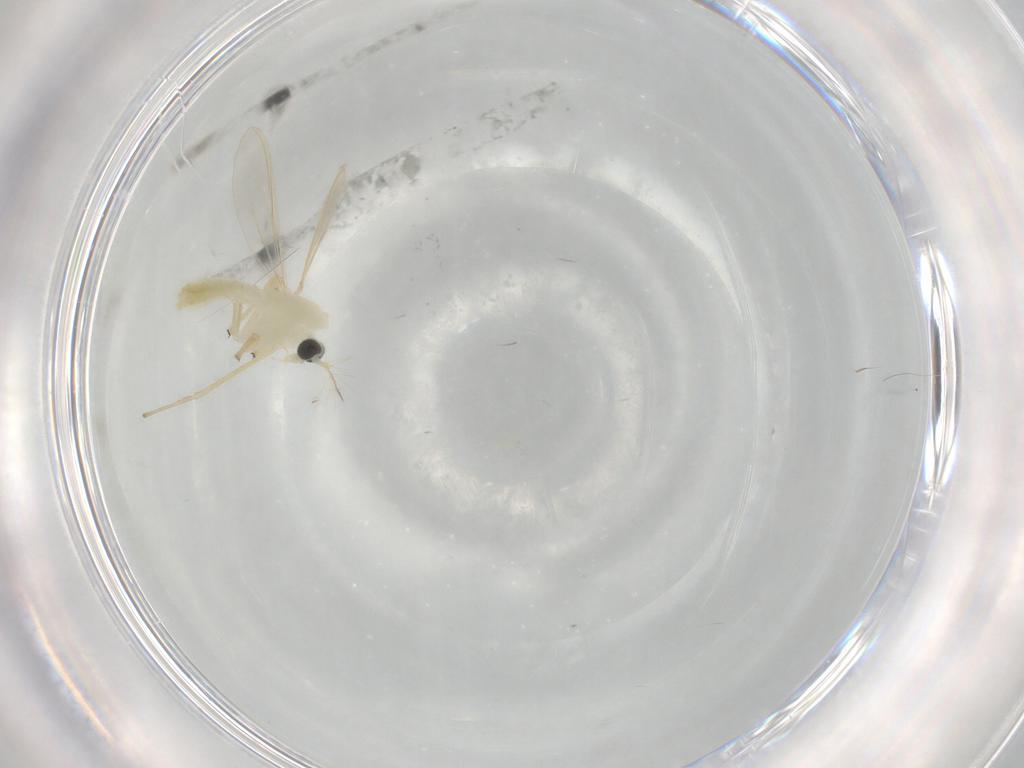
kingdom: Animalia
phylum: Arthropoda
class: Insecta
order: Diptera
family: Chironomidae
